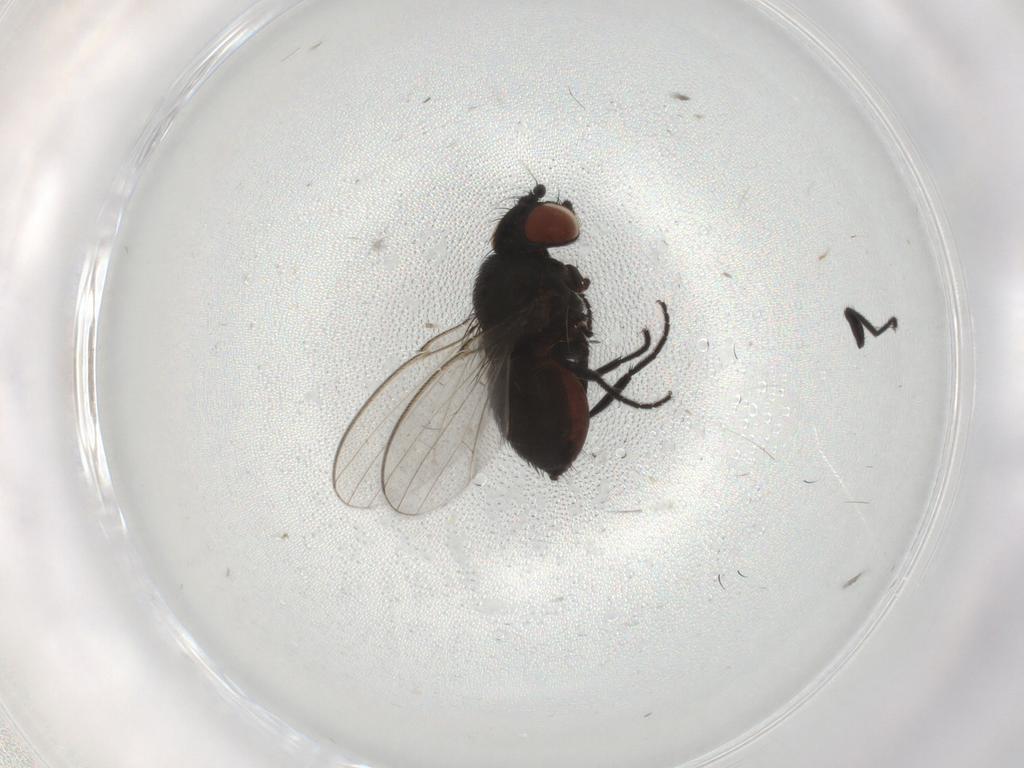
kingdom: Animalia
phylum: Arthropoda
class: Insecta
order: Diptera
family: Milichiidae
